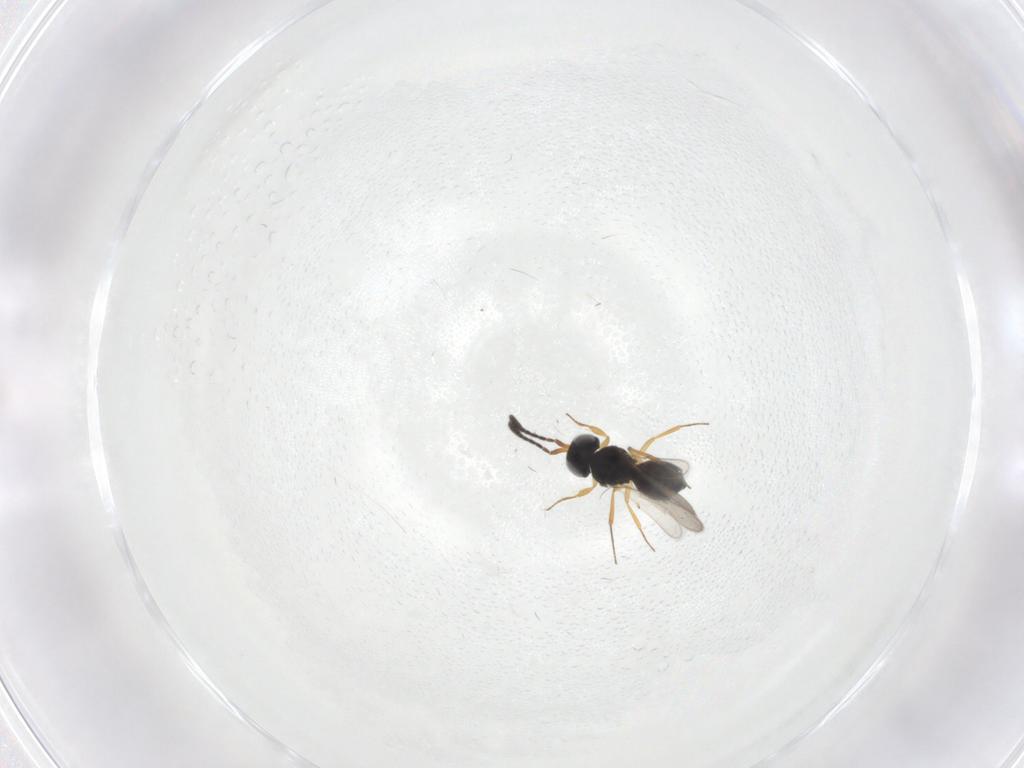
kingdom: Animalia
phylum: Arthropoda
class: Insecta
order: Hymenoptera
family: Scelionidae
